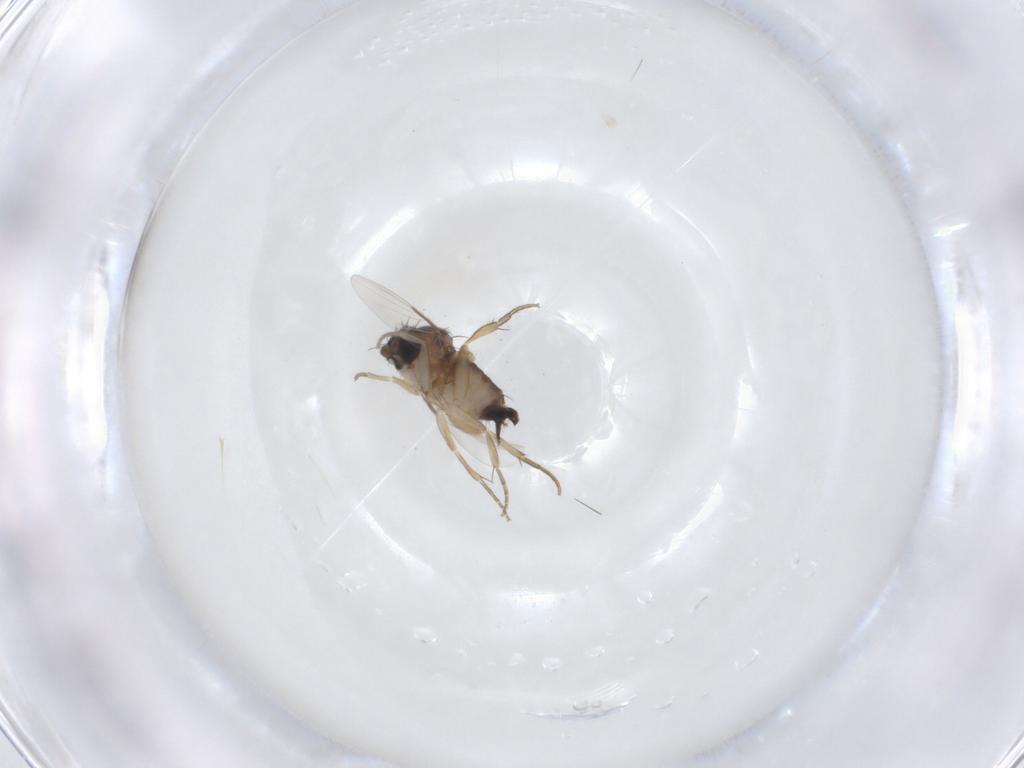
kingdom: Animalia
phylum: Arthropoda
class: Insecta
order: Diptera
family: Phoridae
